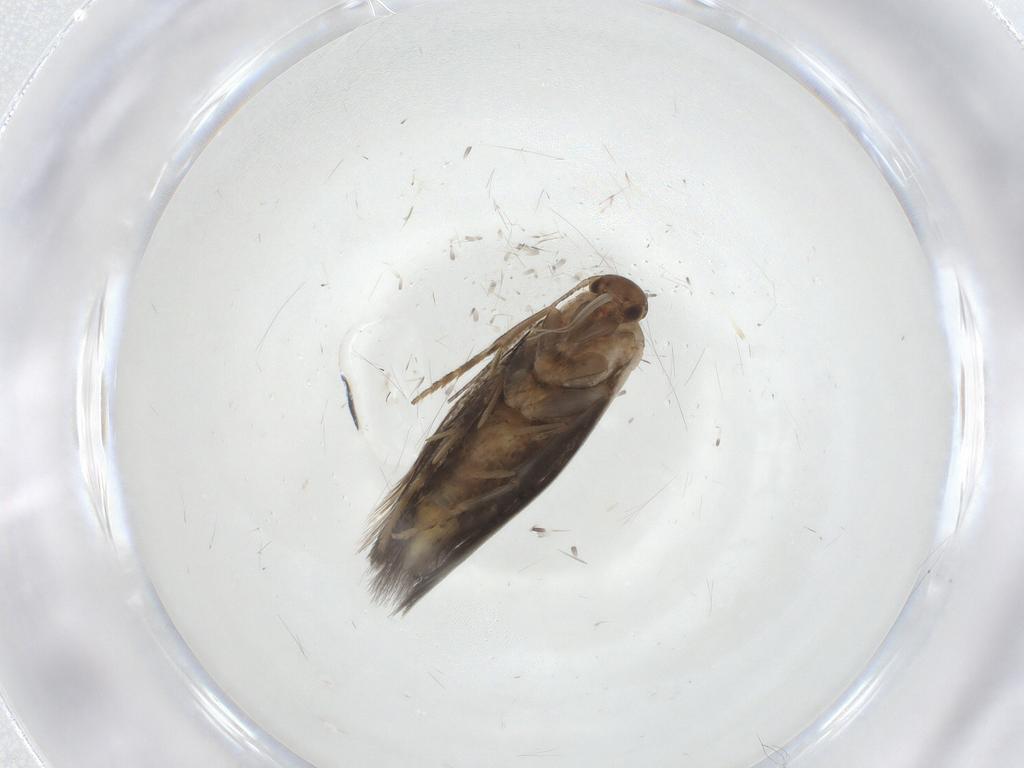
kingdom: Animalia
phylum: Arthropoda
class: Insecta
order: Lepidoptera
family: Elachistidae
